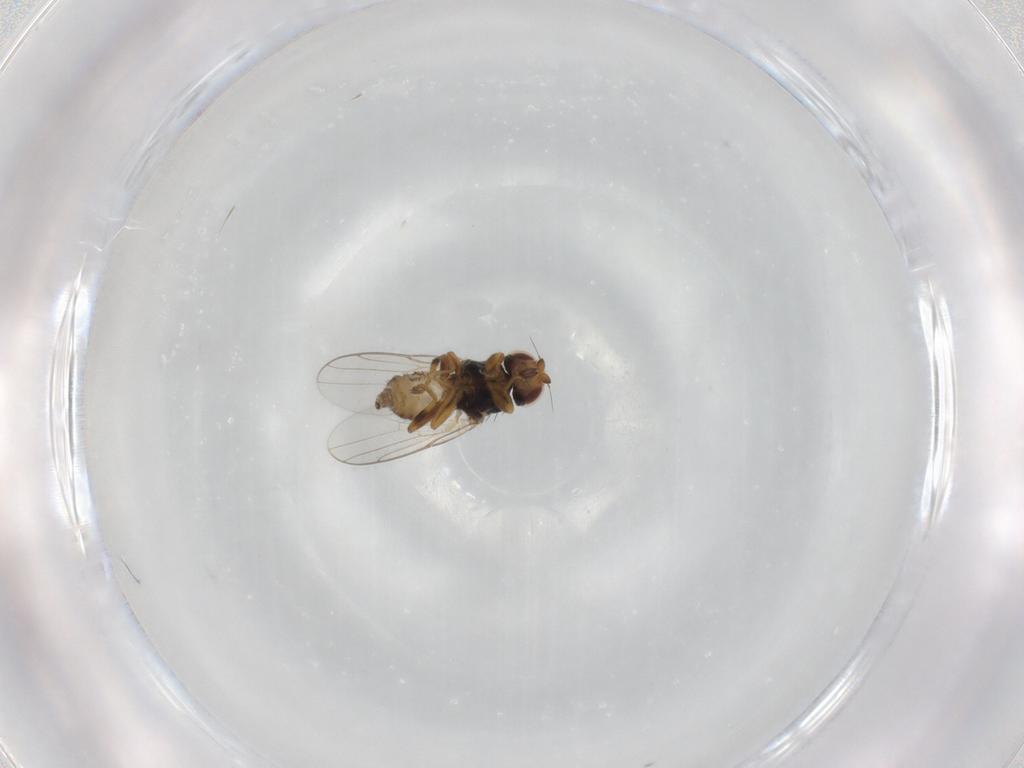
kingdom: Animalia
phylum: Arthropoda
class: Insecta
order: Diptera
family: Chloropidae
